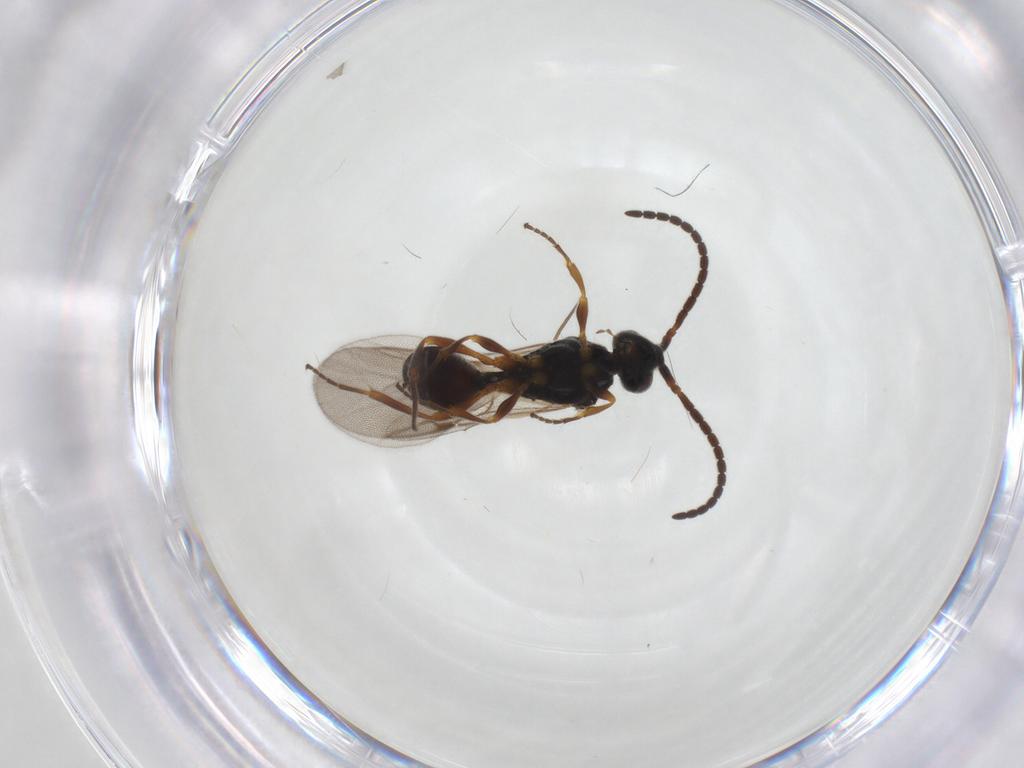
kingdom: Animalia
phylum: Arthropoda
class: Insecta
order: Hymenoptera
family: Diapriidae
